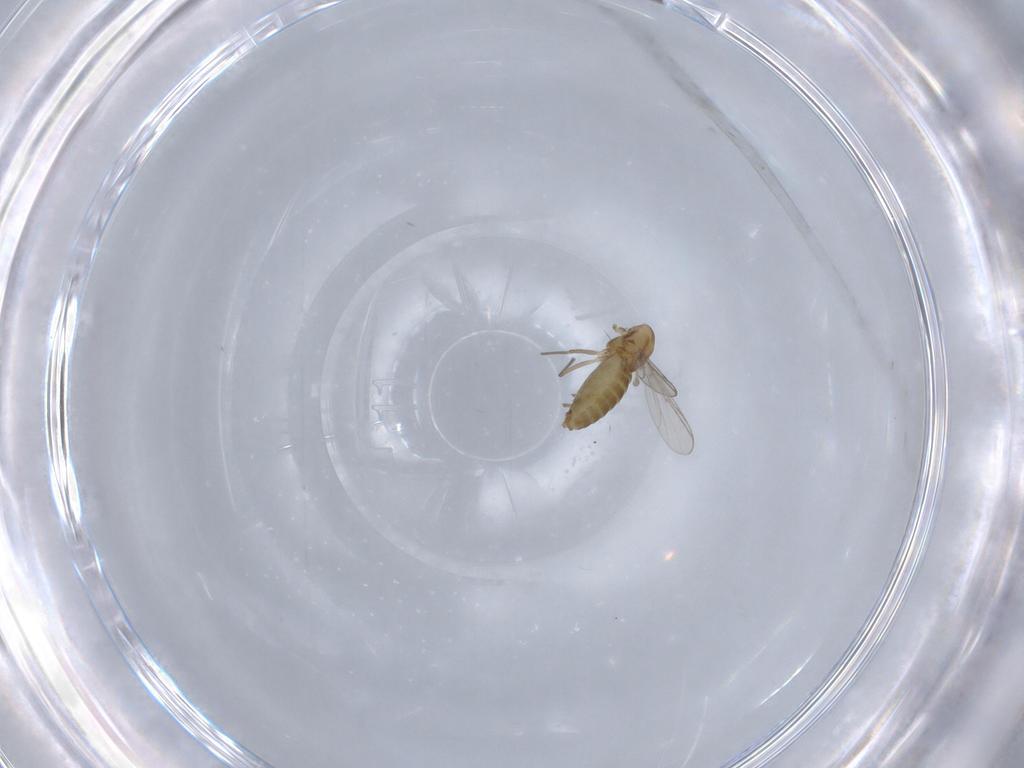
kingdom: Animalia
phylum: Arthropoda
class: Insecta
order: Diptera
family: Chironomidae
